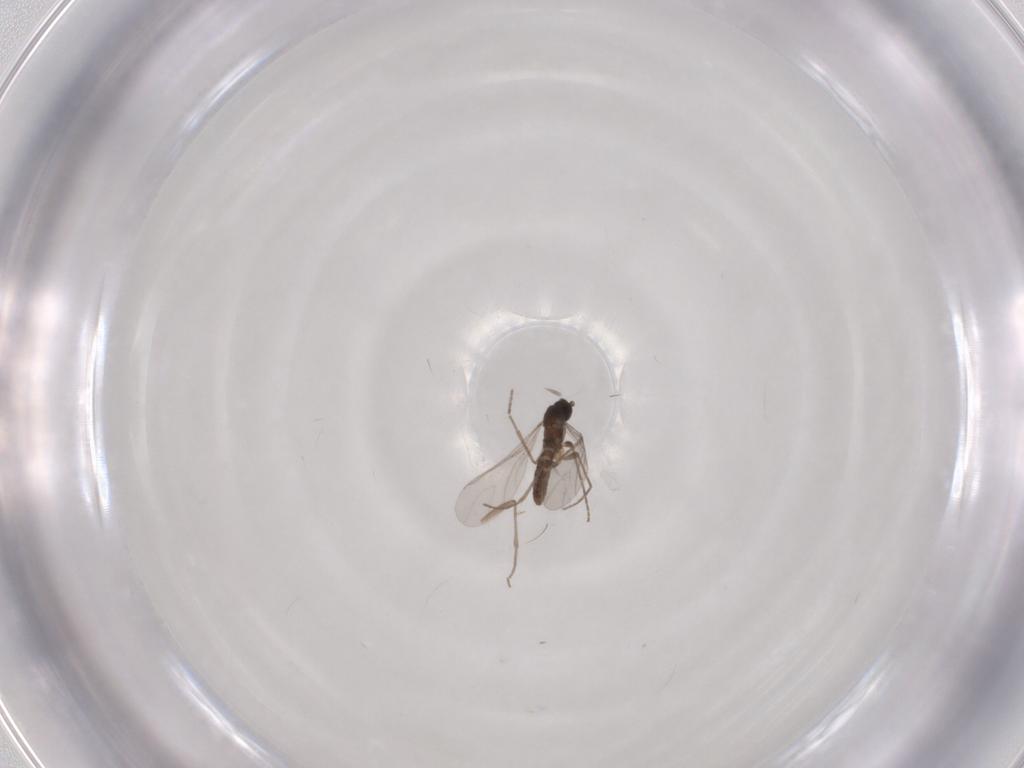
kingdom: Animalia
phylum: Arthropoda
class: Insecta
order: Diptera
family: Sciaridae
